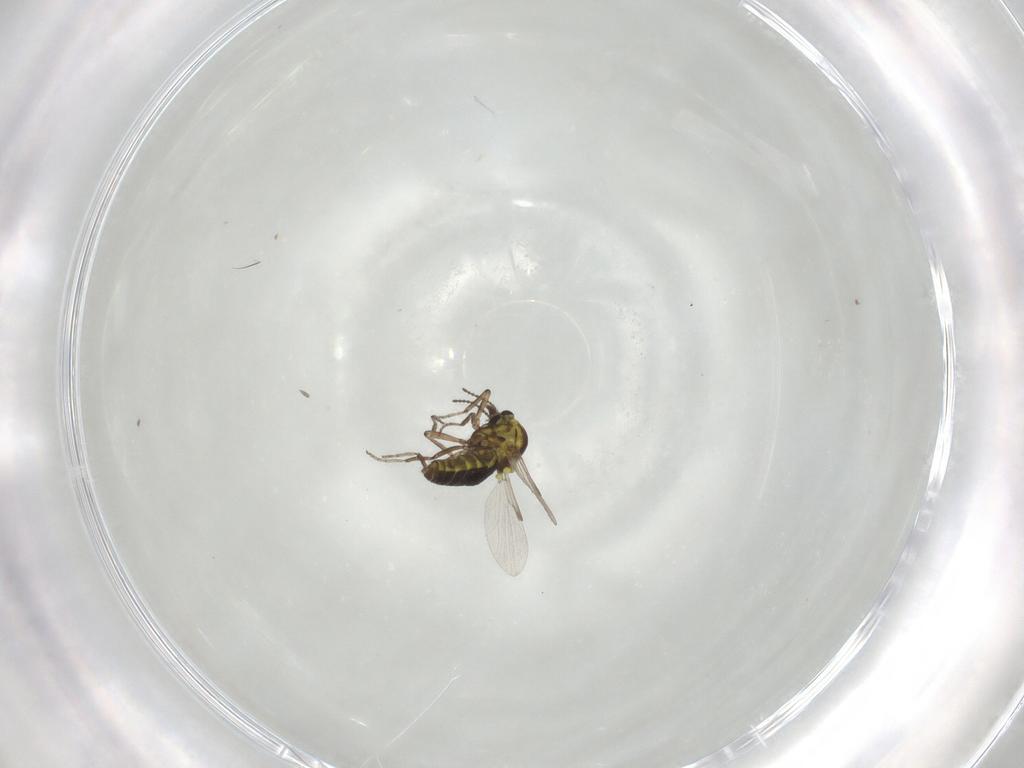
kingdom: Animalia
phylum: Arthropoda
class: Insecta
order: Diptera
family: Ceratopogonidae
